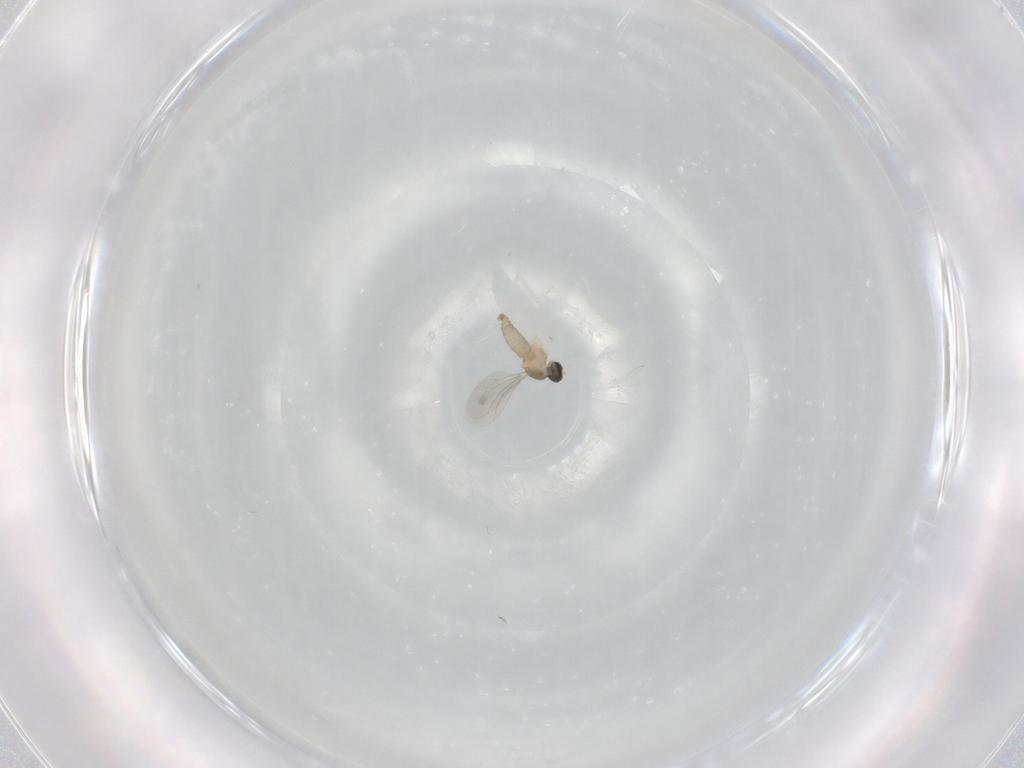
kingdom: Animalia
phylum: Arthropoda
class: Insecta
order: Diptera
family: Cecidomyiidae
